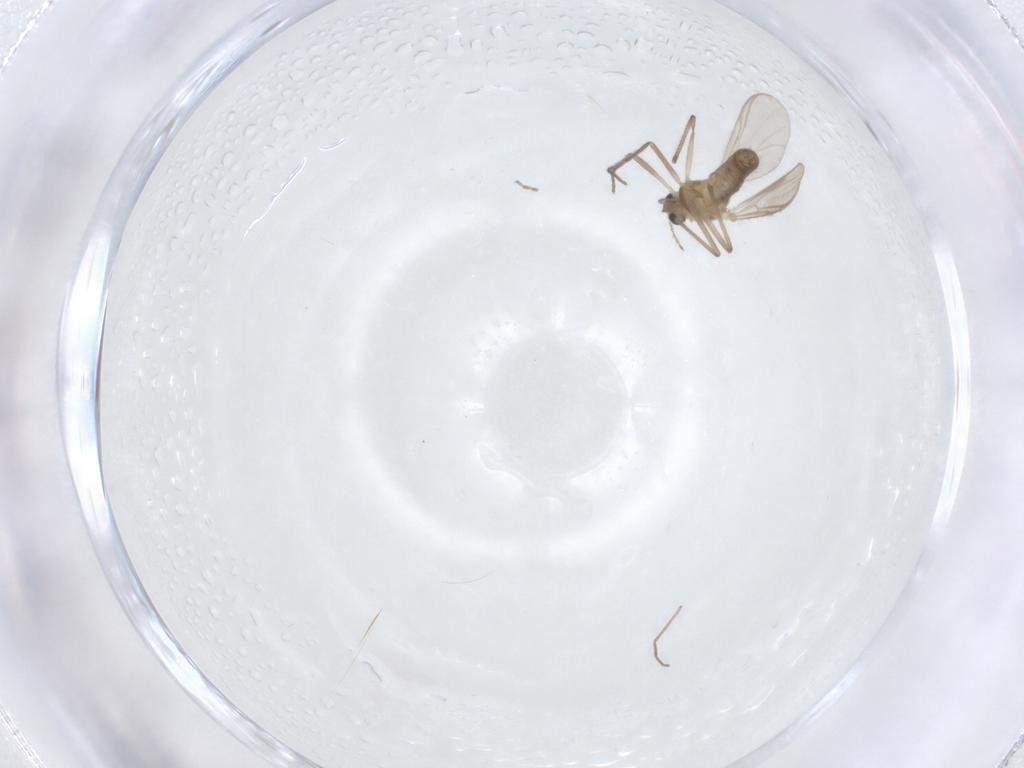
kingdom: Animalia
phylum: Arthropoda
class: Insecta
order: Diptera
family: Chironomidae
